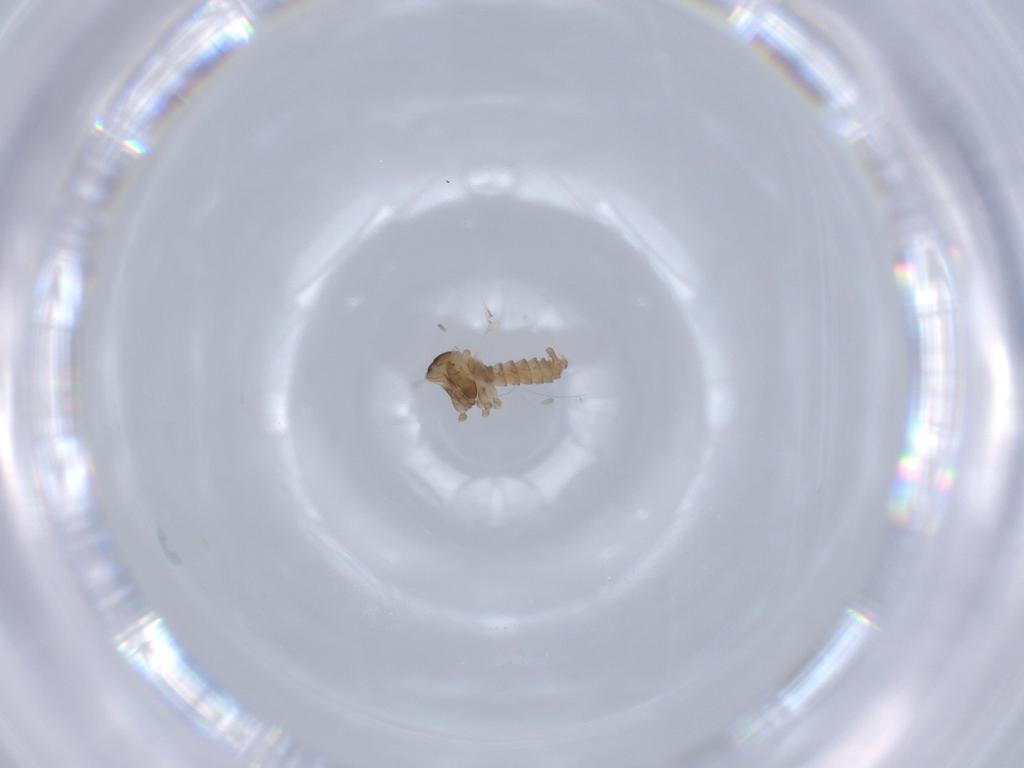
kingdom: Animalia
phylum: Arthropoda
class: Insecta
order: Diptera
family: Cecidomyiidae
